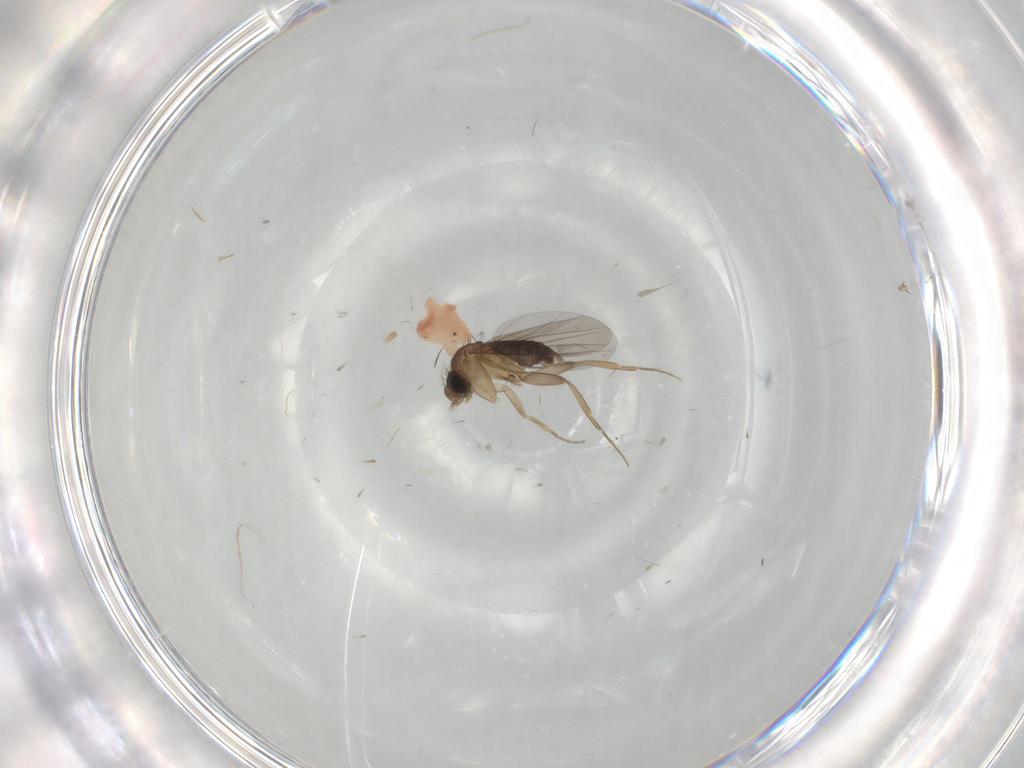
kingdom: Animalia
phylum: Arthropoda
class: Insecta
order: Diptera
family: Phoridae
